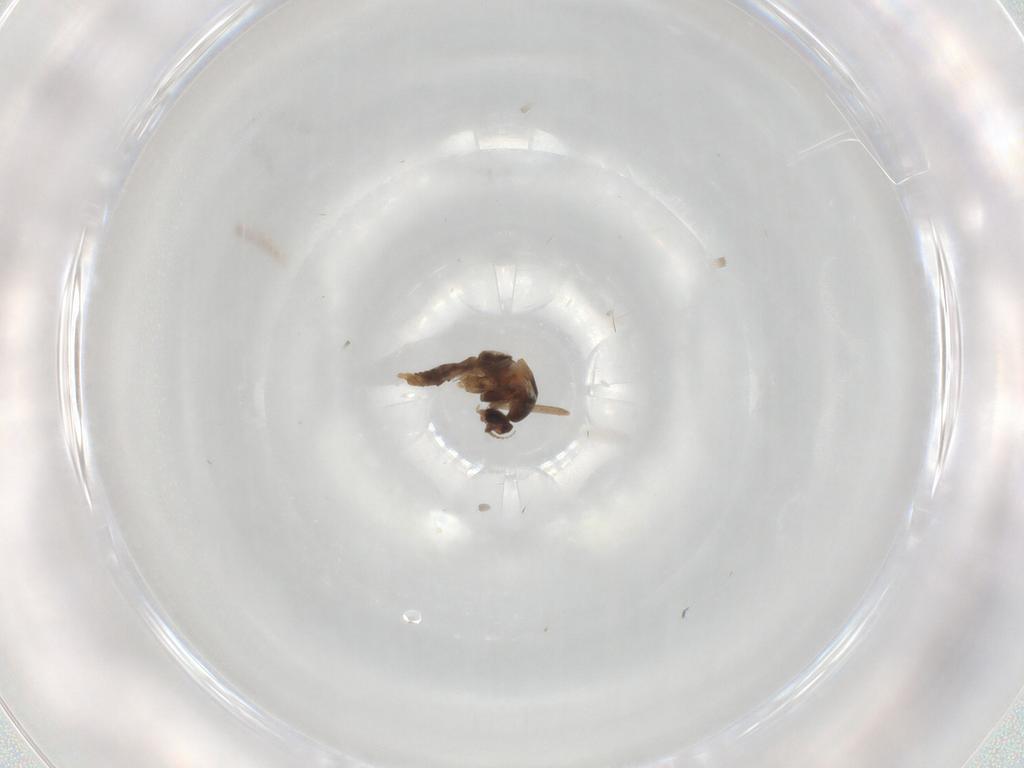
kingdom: Animalia
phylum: Arthropoda
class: Insecta
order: Diptera
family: Cecidomyiidae
